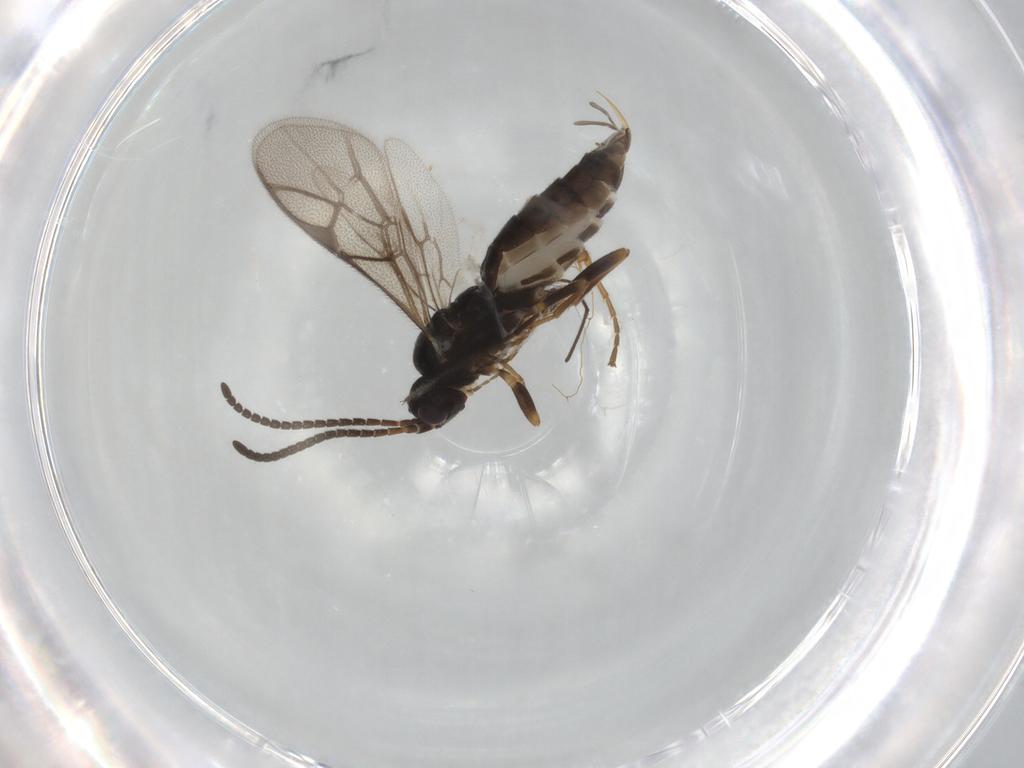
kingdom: Animalia
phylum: Arthropoda
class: Insecta
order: Hymenoptera
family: Ichneumonidae
